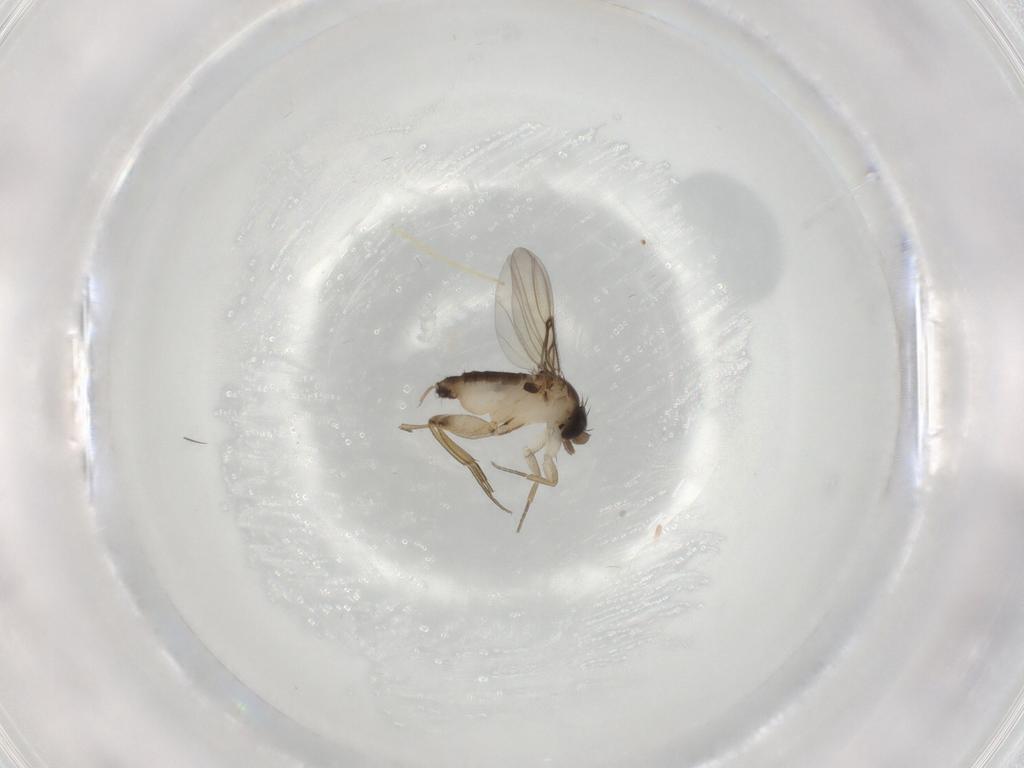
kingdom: Animalia
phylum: Arthropoda
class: Insecta
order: Diptera
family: Phoridae
